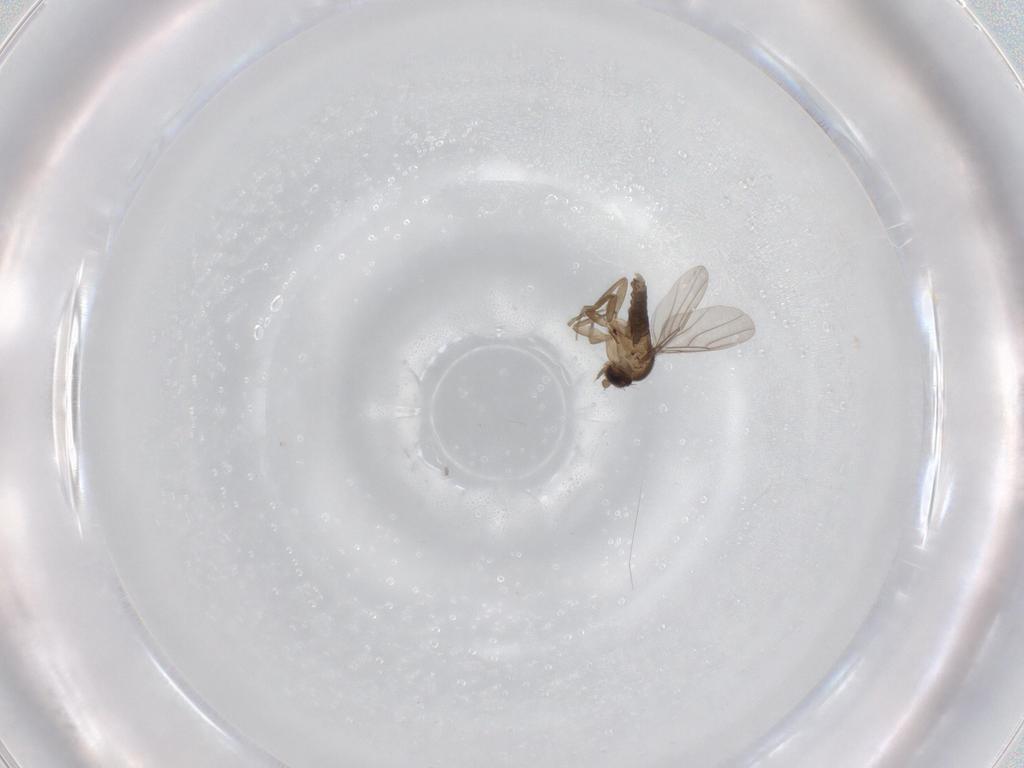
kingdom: Animalia
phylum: Arthropoda
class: Insecta
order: Diptera
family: Phoridae
